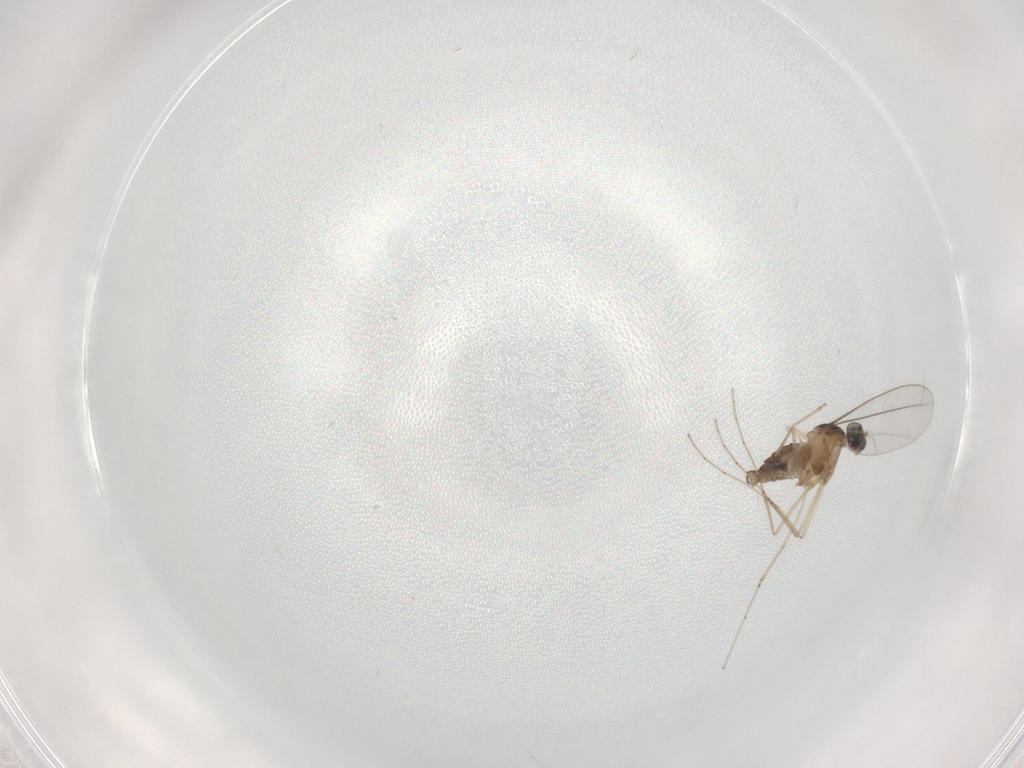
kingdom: Animalia
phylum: Arthropoda
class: Insecta
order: Diptera
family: Cecidomyiidae
